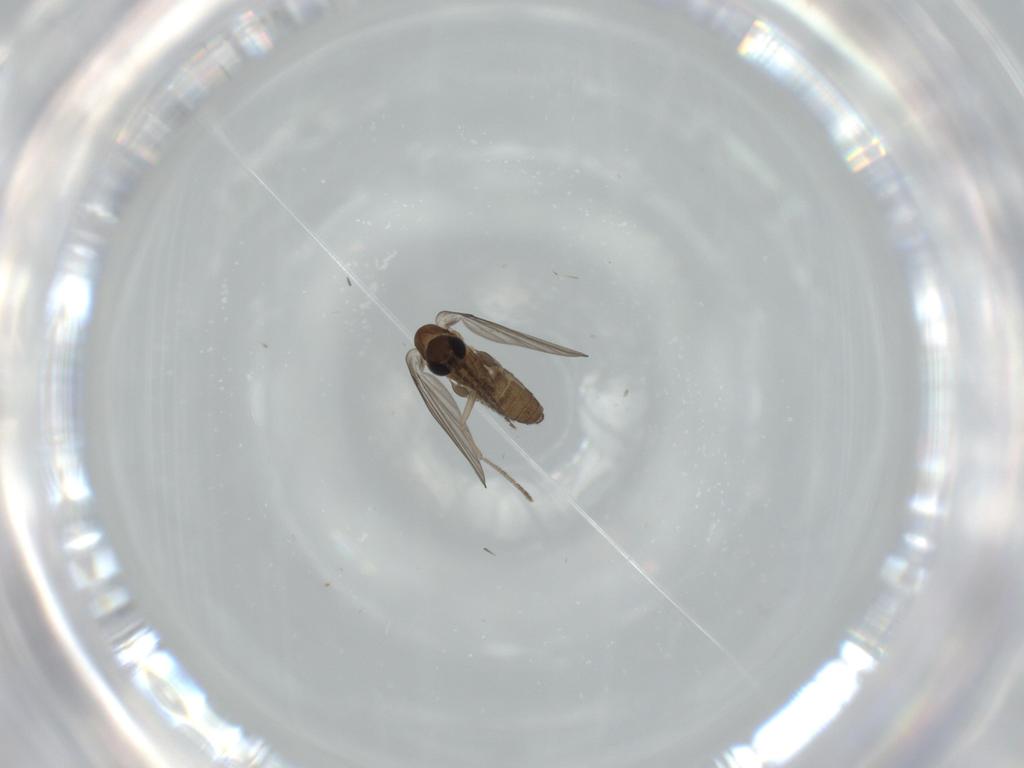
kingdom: Animalia
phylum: Arthropoda
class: Insecta
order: Diptera
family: Psychodidae
